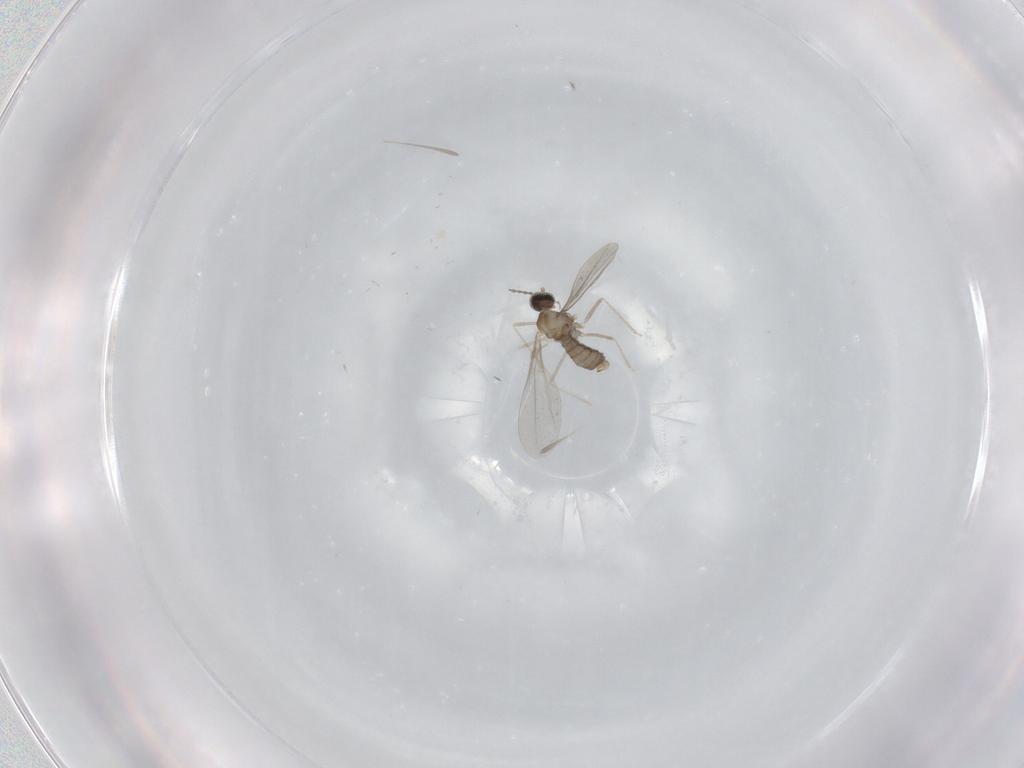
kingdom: Animalia
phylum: Arthropoda
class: Insecta
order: Diptera
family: Cecidomyiidae
